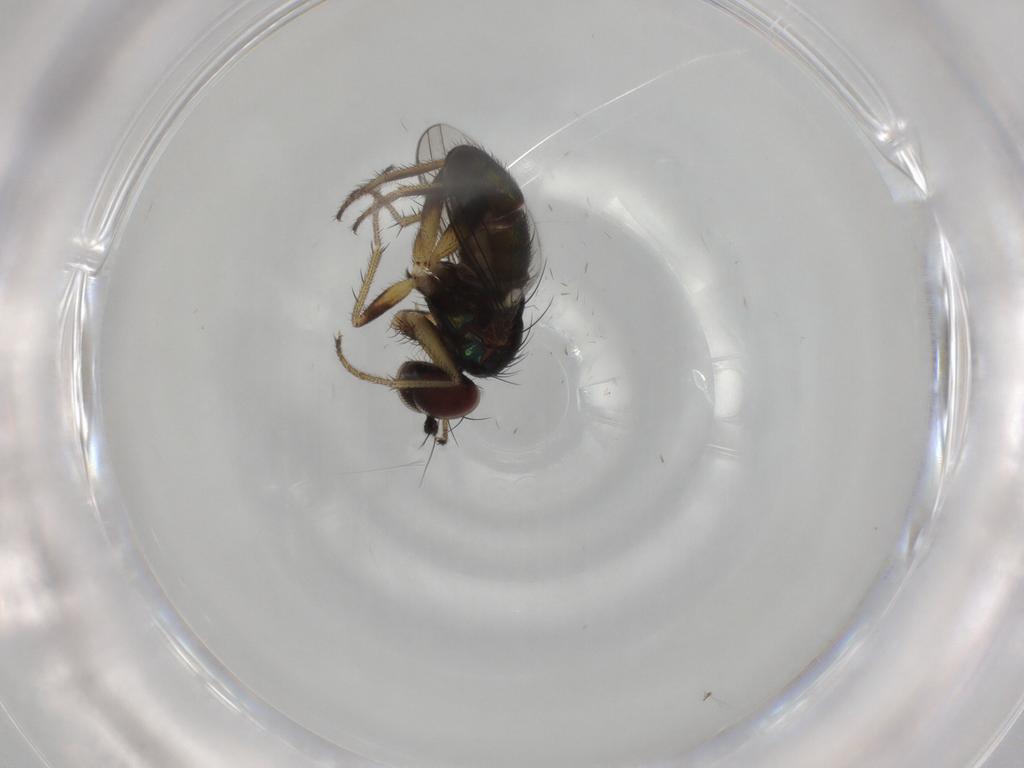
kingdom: Animalia
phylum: Arthropoda
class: Insecta
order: Diptera
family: Dolichopodidae
